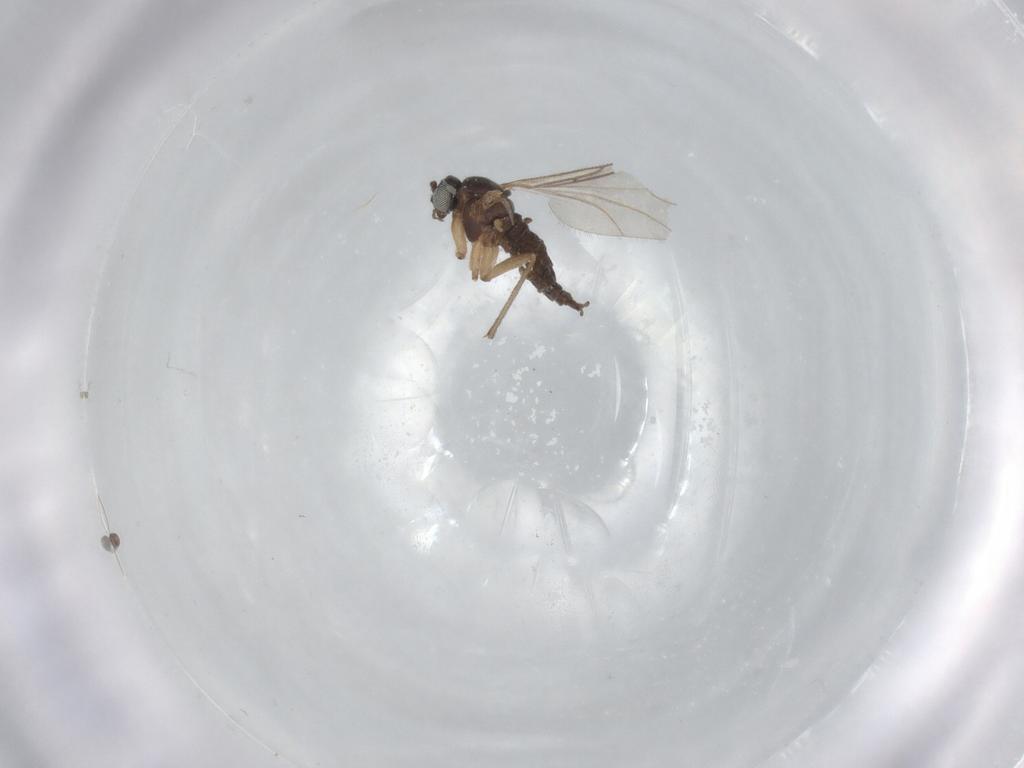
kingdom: Animalia
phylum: Arthropoda
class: Insecta
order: Diptera
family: Sciaridae
